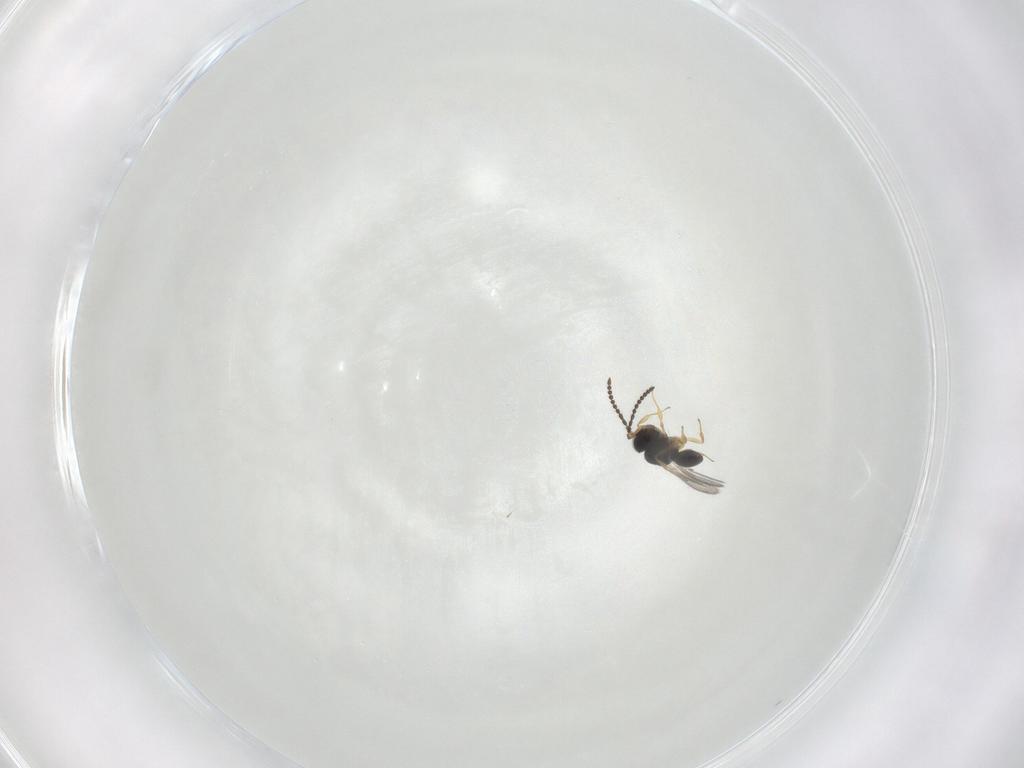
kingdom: Animalia
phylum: Arthropoda
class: Insecta
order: Hymenoptera
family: Scelionidae
